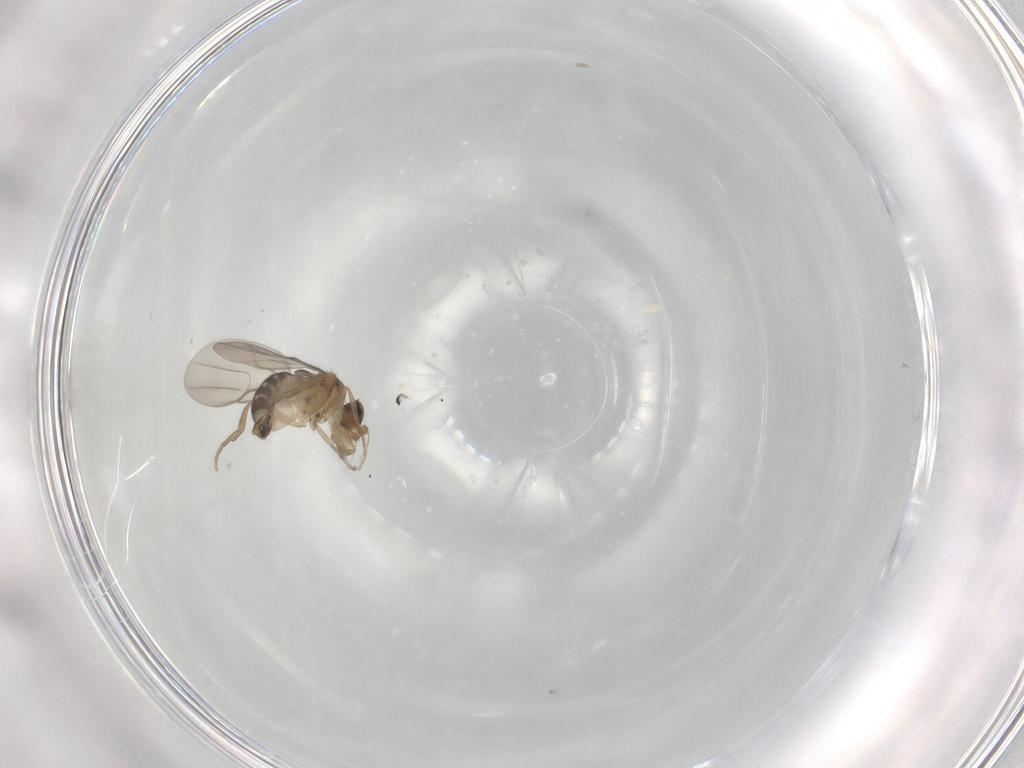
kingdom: Animalia
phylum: Arthropoda
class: Insecta
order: Diptera
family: Phoridae
